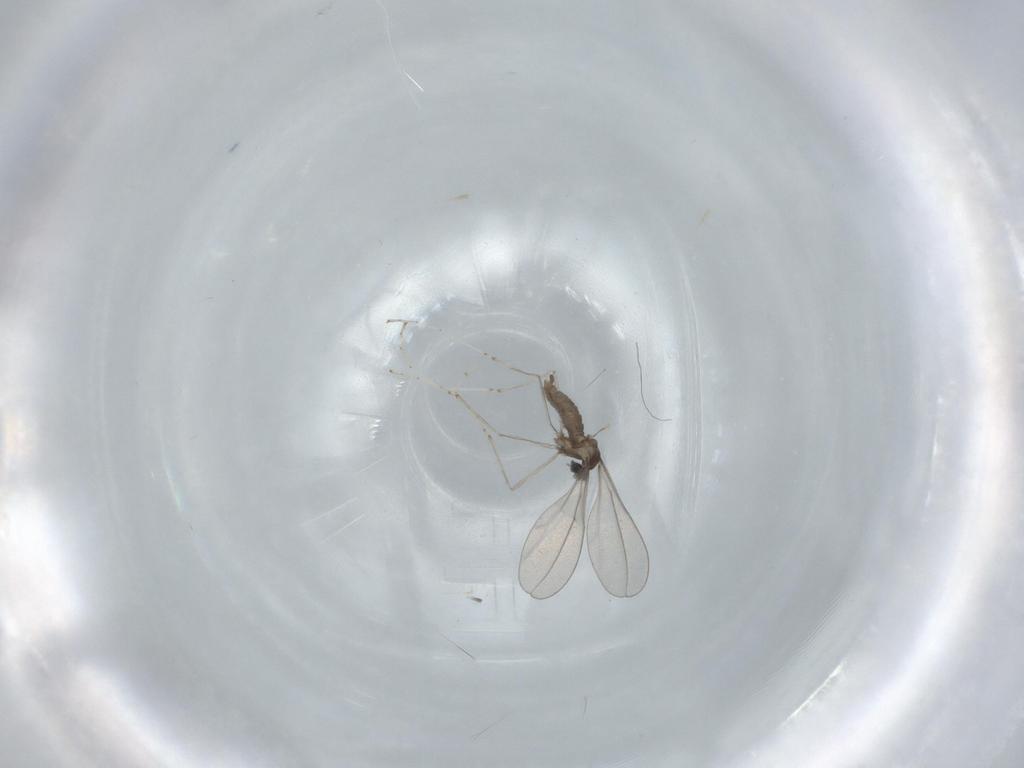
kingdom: Animalia
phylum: Arthropoda
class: Insecta
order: Diptera
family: Cecidomyiidae
